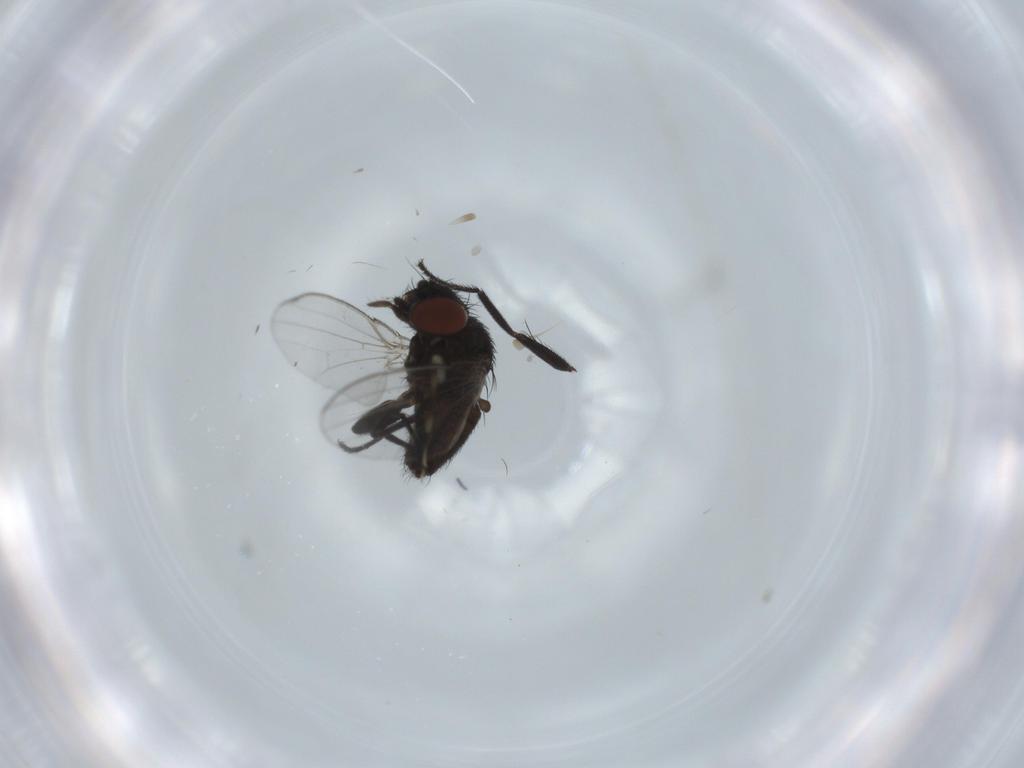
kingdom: Animalia
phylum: Arthropoda
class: Insecta
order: Diptera
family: Milichiidae
